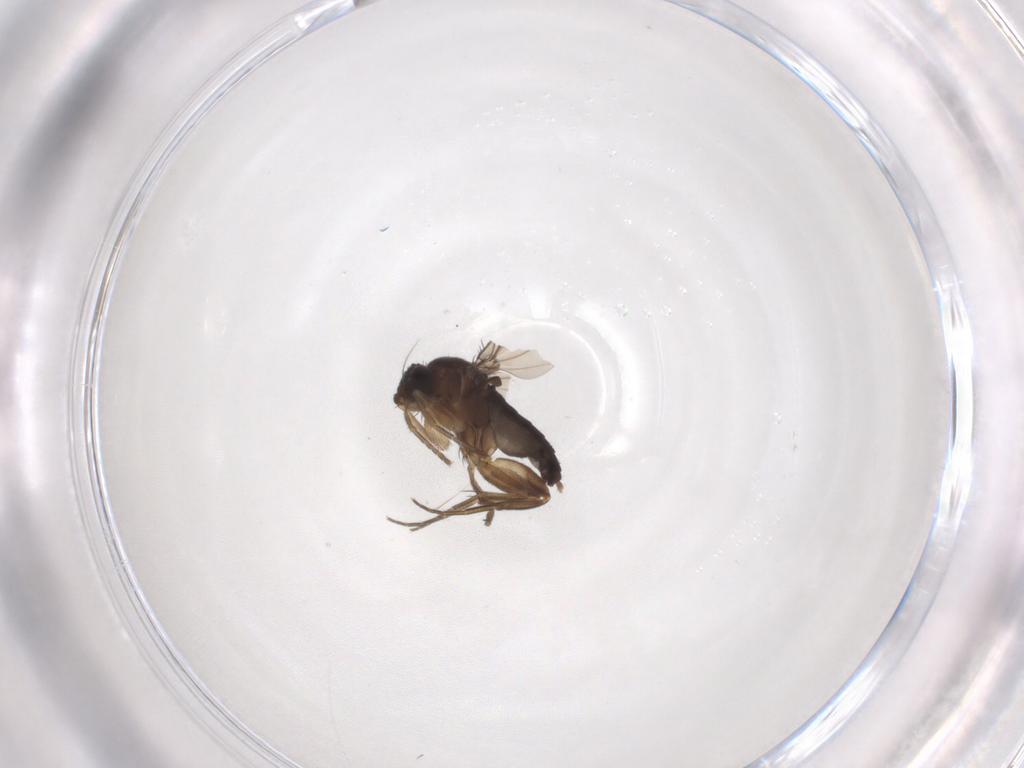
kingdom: Animalia
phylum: Arthropoda
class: Insecta
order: Diptera
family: Phoridae
